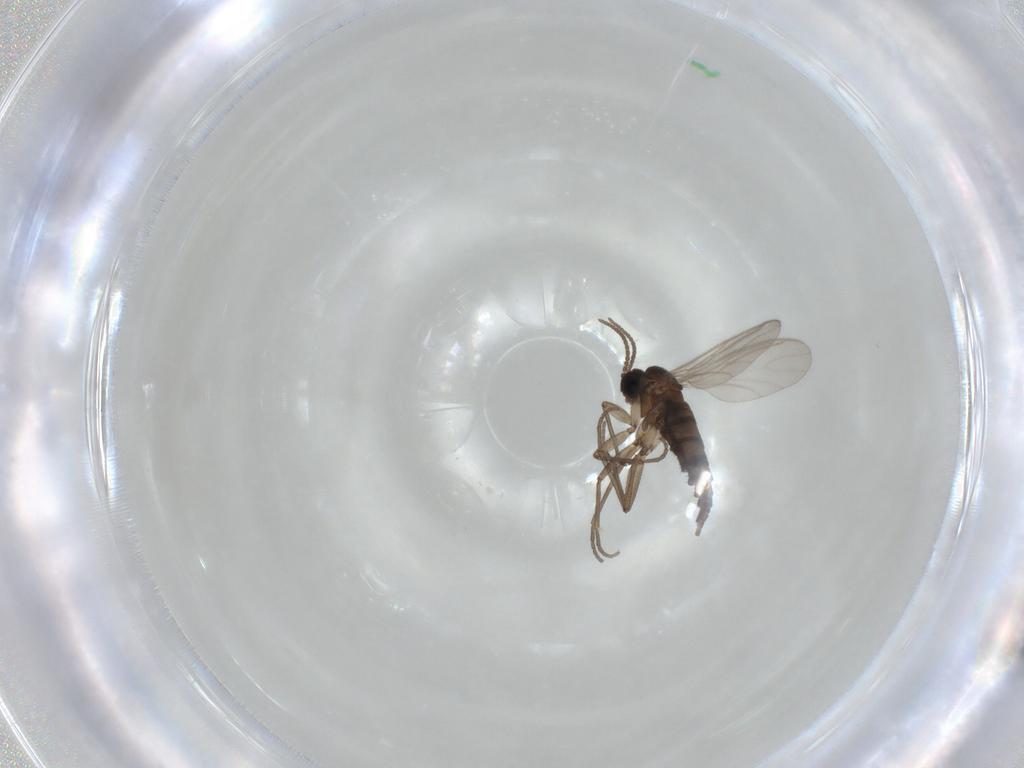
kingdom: Animalia
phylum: Arthropoda
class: Insecta
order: Diptera
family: Sciaridae
